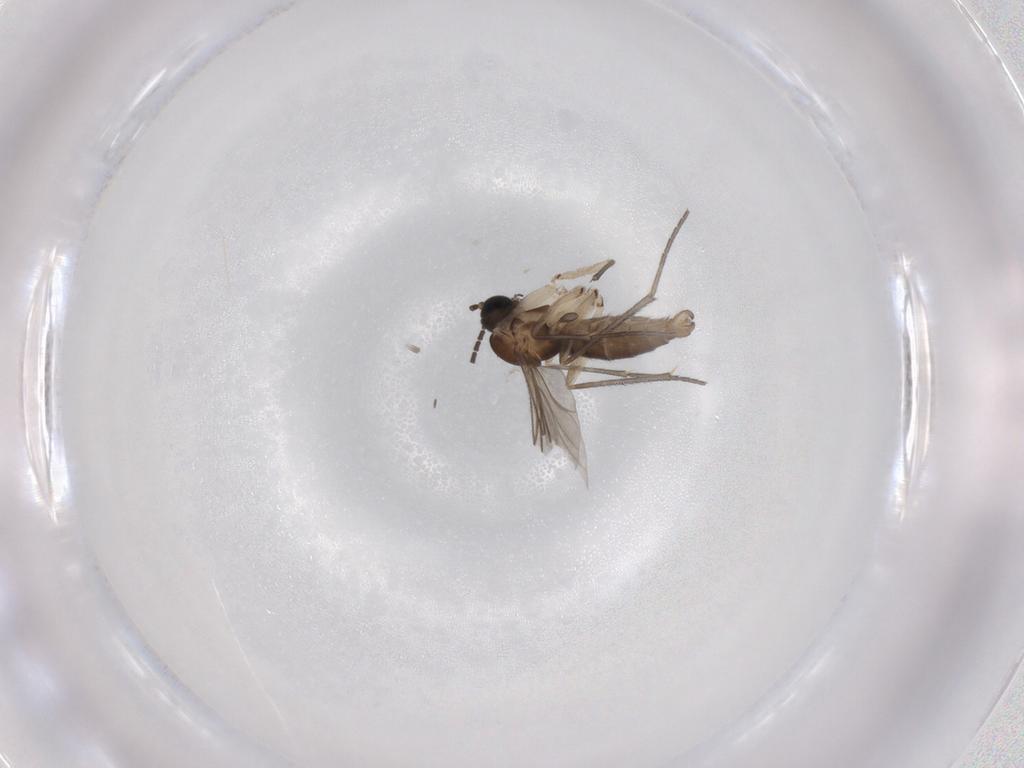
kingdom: Animalia
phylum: Arthropoda
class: Insecta
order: Diptera
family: Sciaridae
